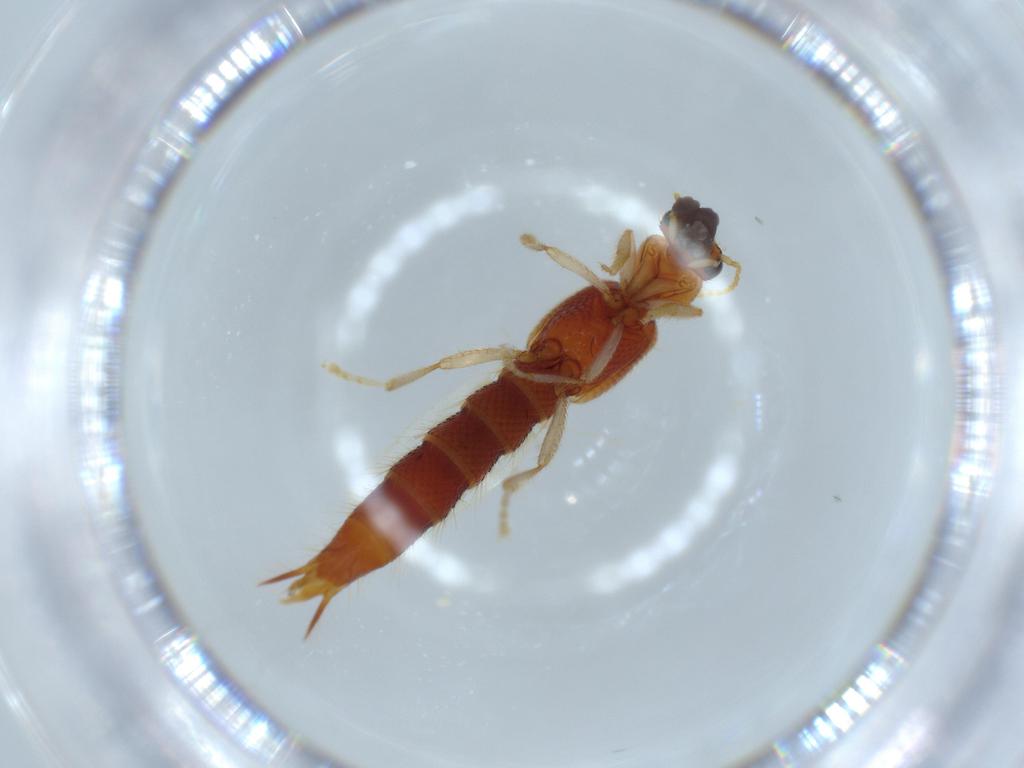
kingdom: Animalia
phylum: Arthropoda
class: Insecta
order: Coleoptera
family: Staphylinidae
